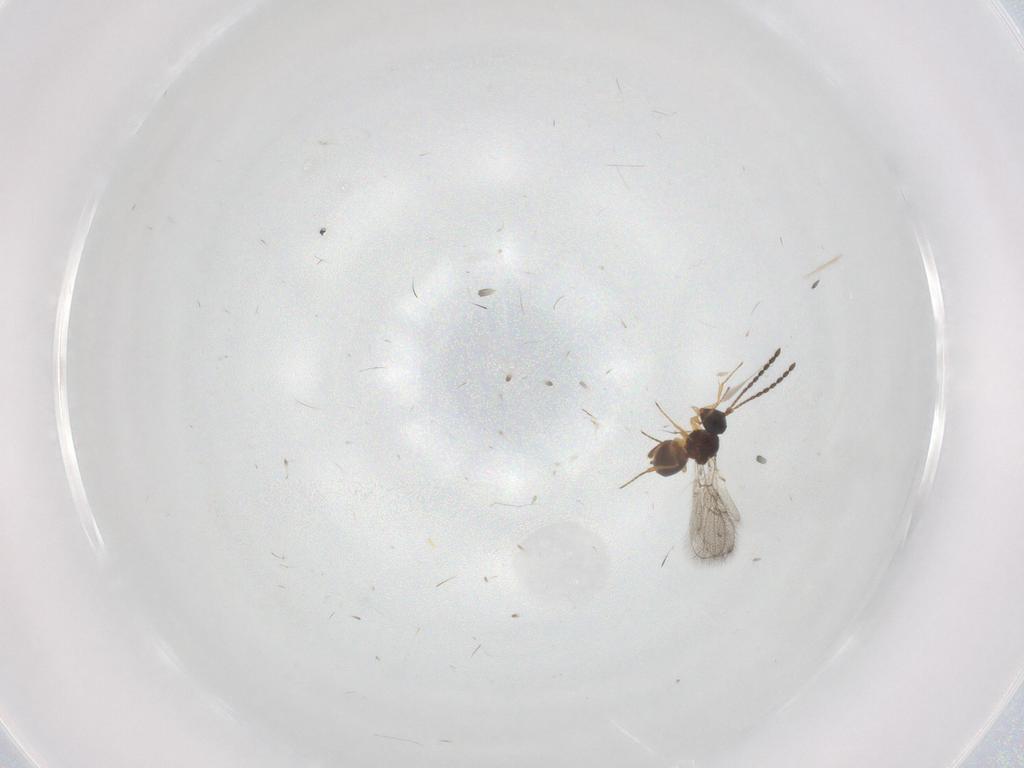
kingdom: Animalia
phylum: Arthropoda
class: Insecta
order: Hymenoptera
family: Figitidae
